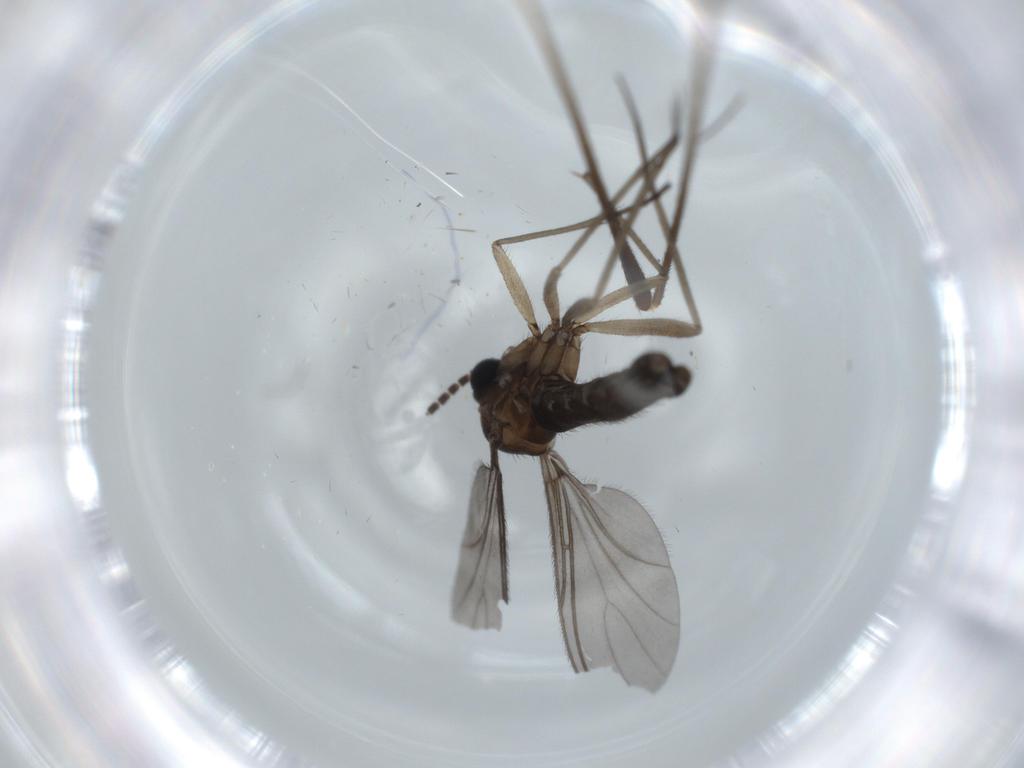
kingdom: Animalia
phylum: Arthropoda
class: Insecta
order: Diptera
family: Sciaridae
